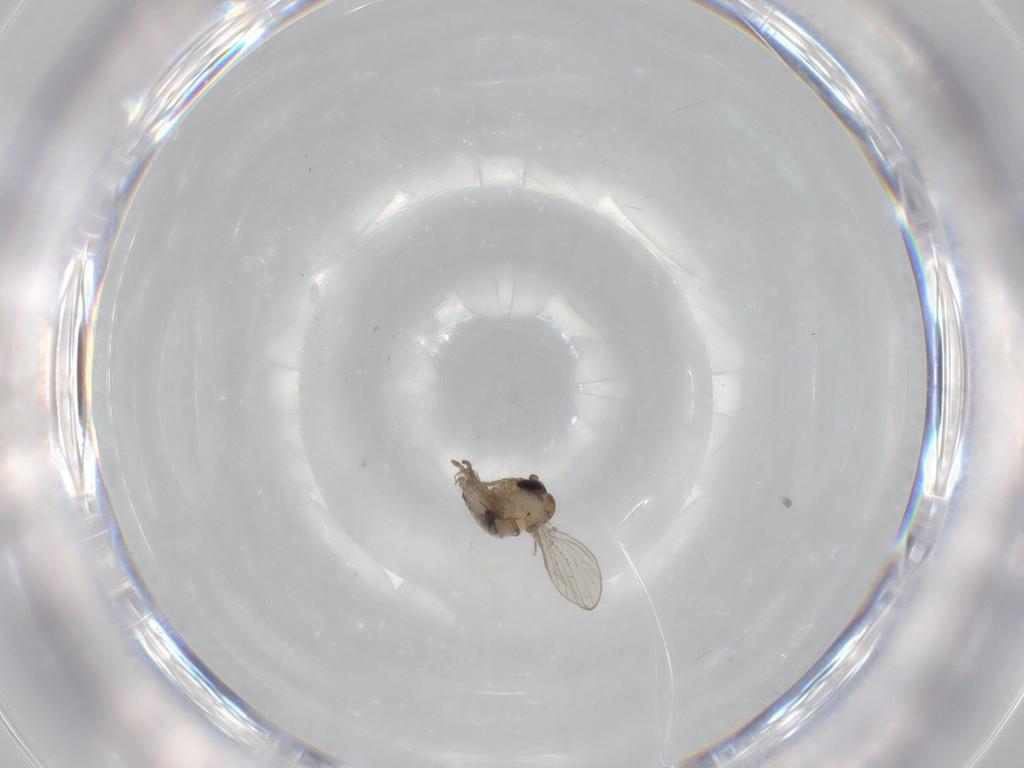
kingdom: Animalia
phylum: Arthropoda
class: Insecta
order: Diptera
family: Psychodidae
